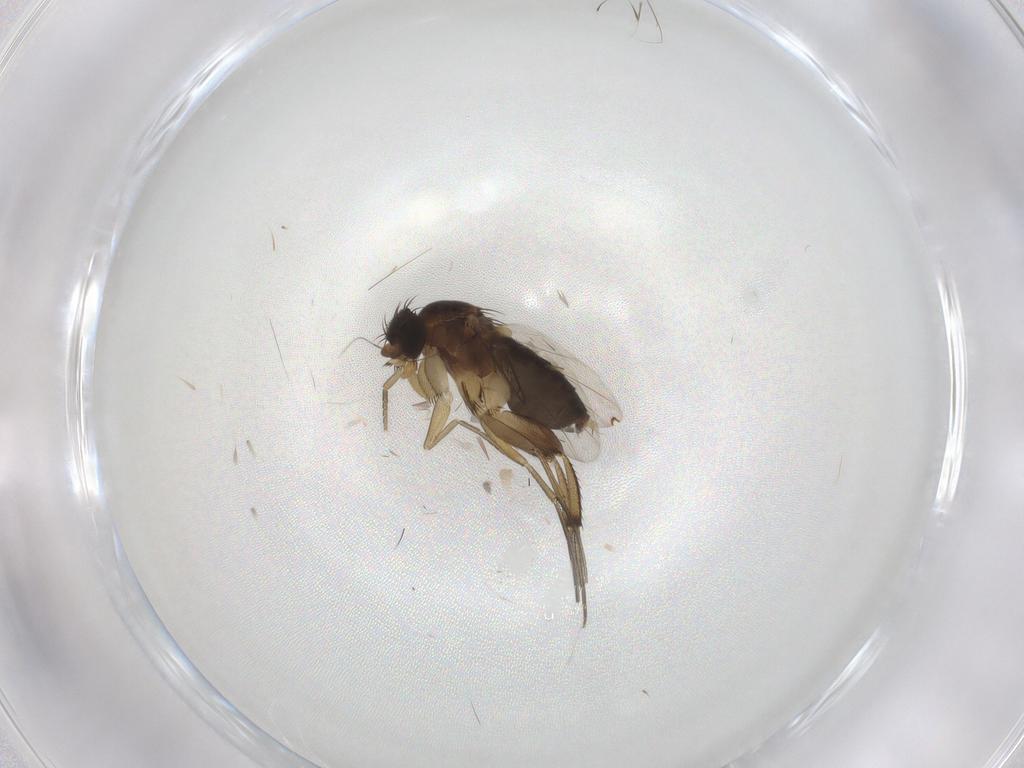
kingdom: Animalia
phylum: Arthropoda
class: Insecta
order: Diptera
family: Phoridae
